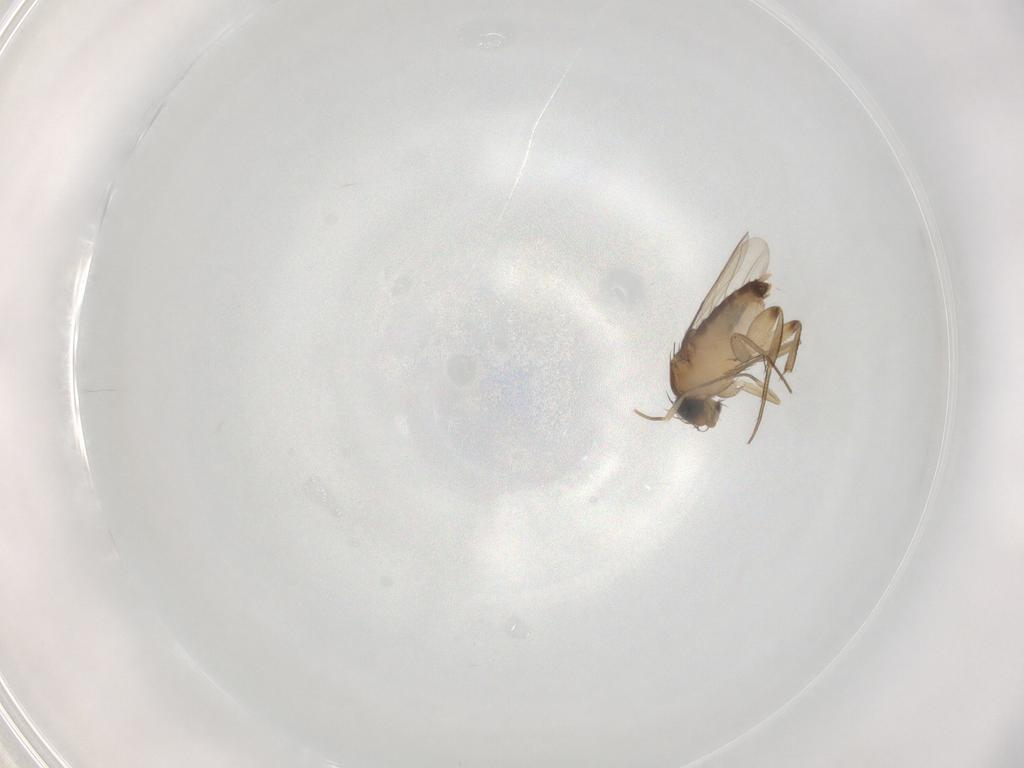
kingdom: Animalia
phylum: Arthropoda
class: Insecta
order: Diptera
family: Phoridae
